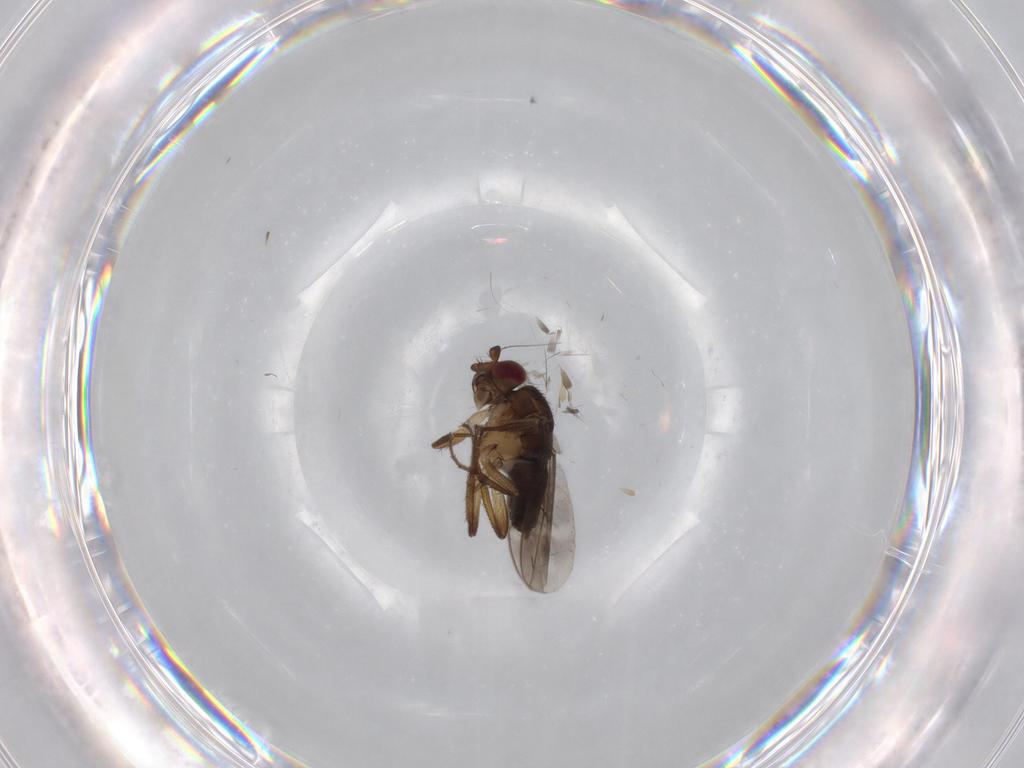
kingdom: Animalia
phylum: Arthropoda
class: Insecta
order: Diptera
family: Sphaeroceridae
